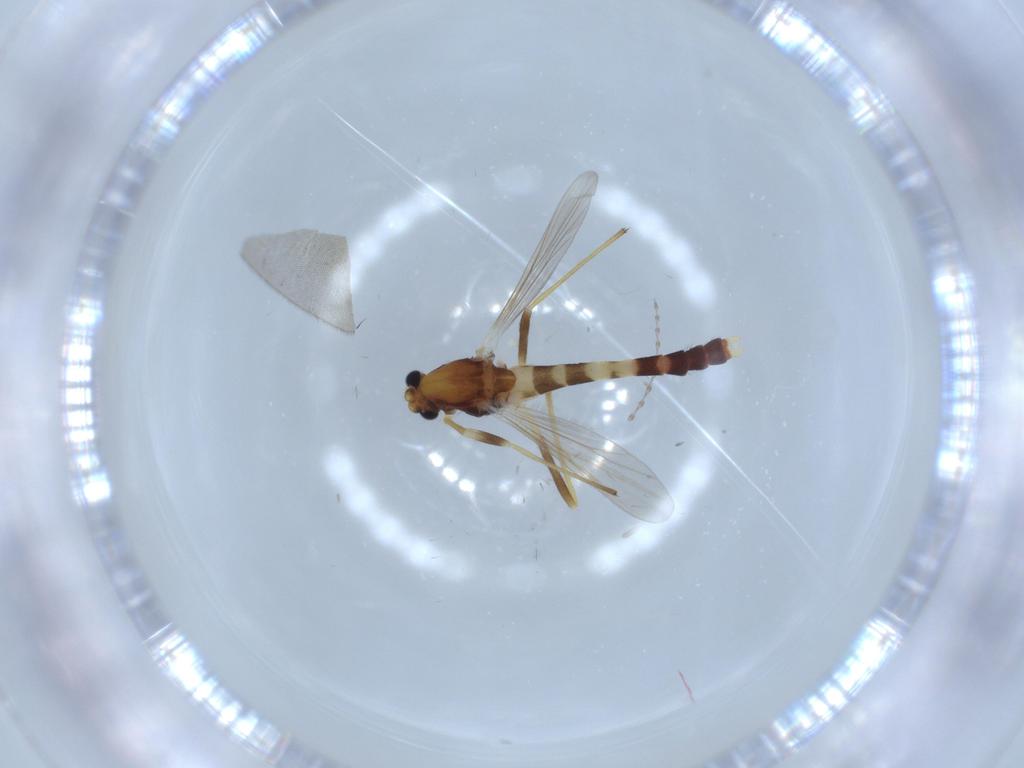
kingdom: Animalia
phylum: Arthropoda
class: Insecta
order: Diptera
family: Cecidomyiidae
